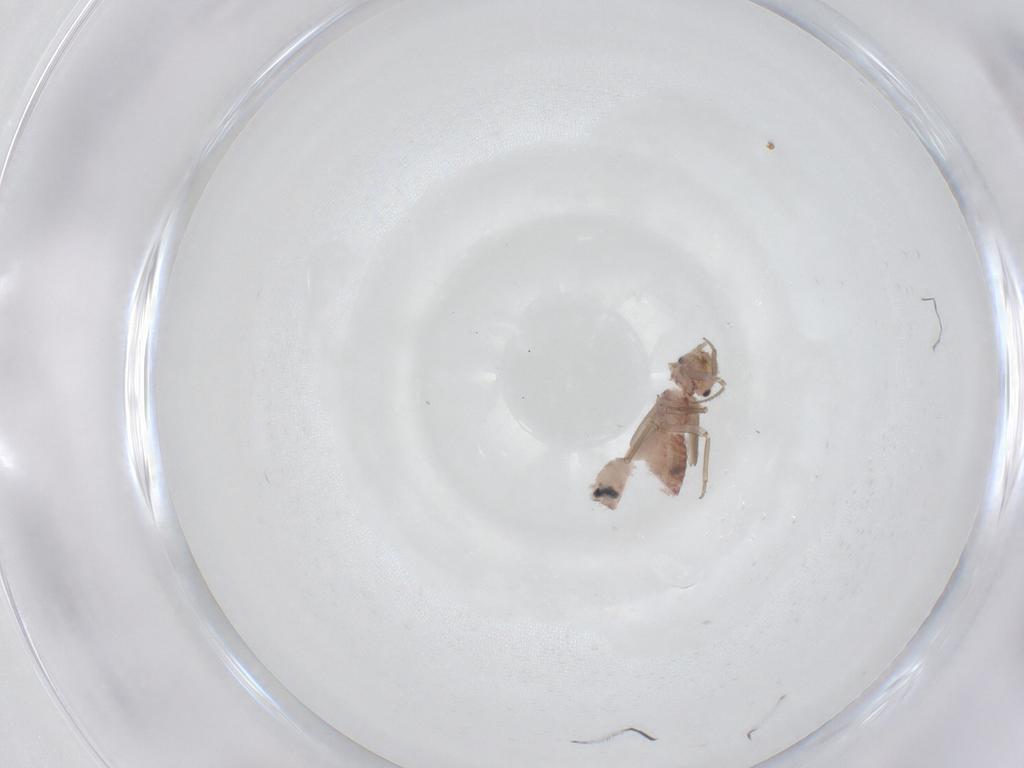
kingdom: Animalia
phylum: Arthropoda
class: Insecta
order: Psocodea
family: Ectopsocidae
